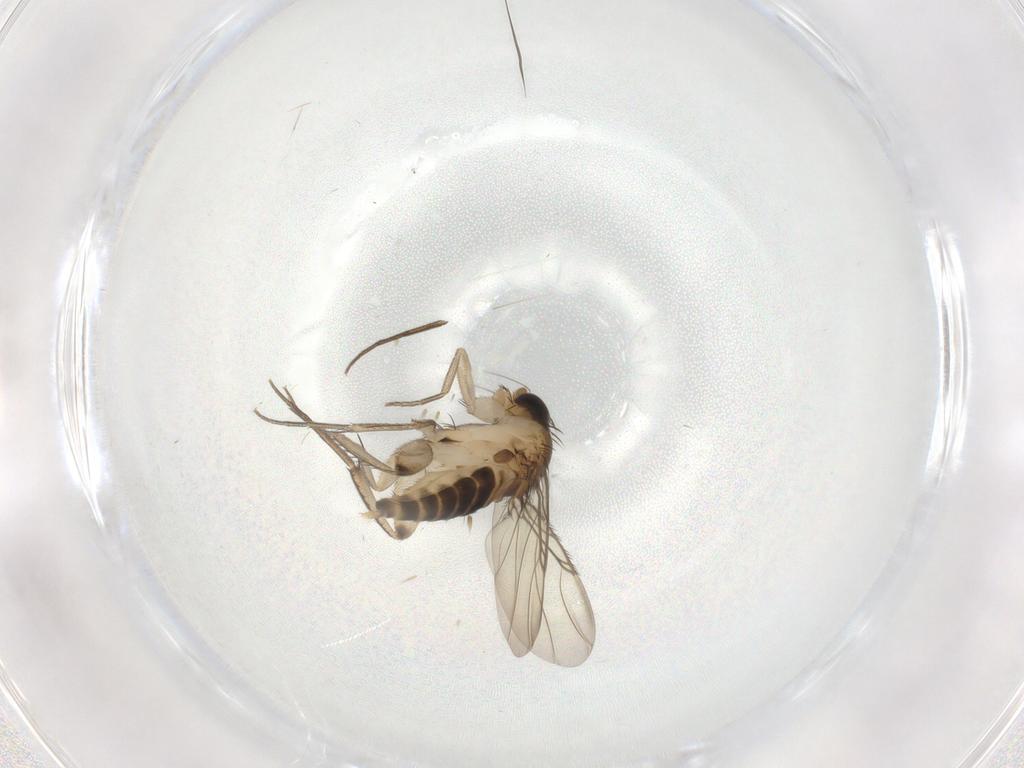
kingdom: Animalia
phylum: Arthropoda
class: Insecta
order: Diptera
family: Phoridae
